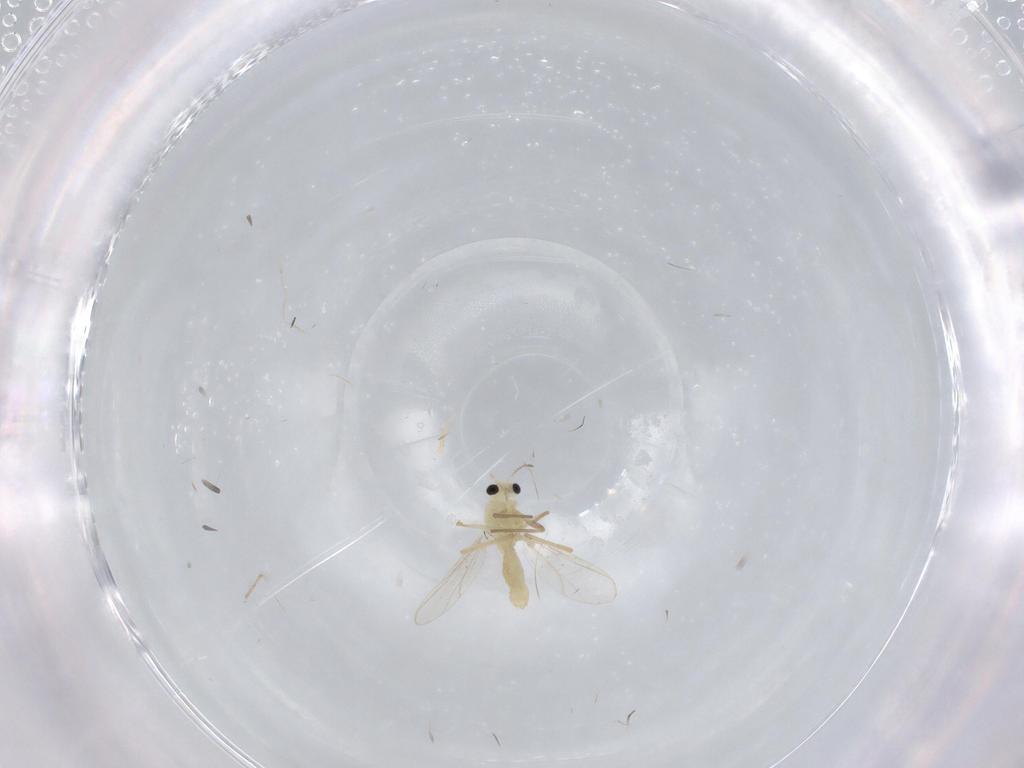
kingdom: Animalia
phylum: Arthropoda
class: Insecta
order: Diptera
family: Chironomidae
